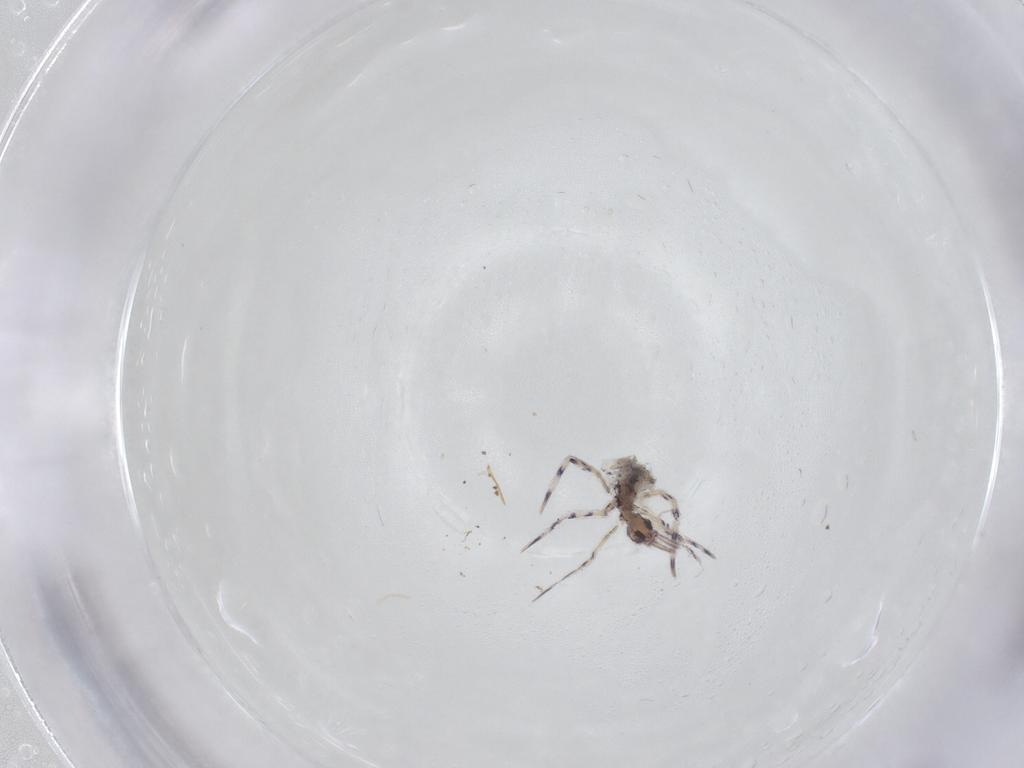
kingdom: Animalia
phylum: Arthropoda
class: Collembola
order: Entomobryomorpha
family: Entomobryidae
